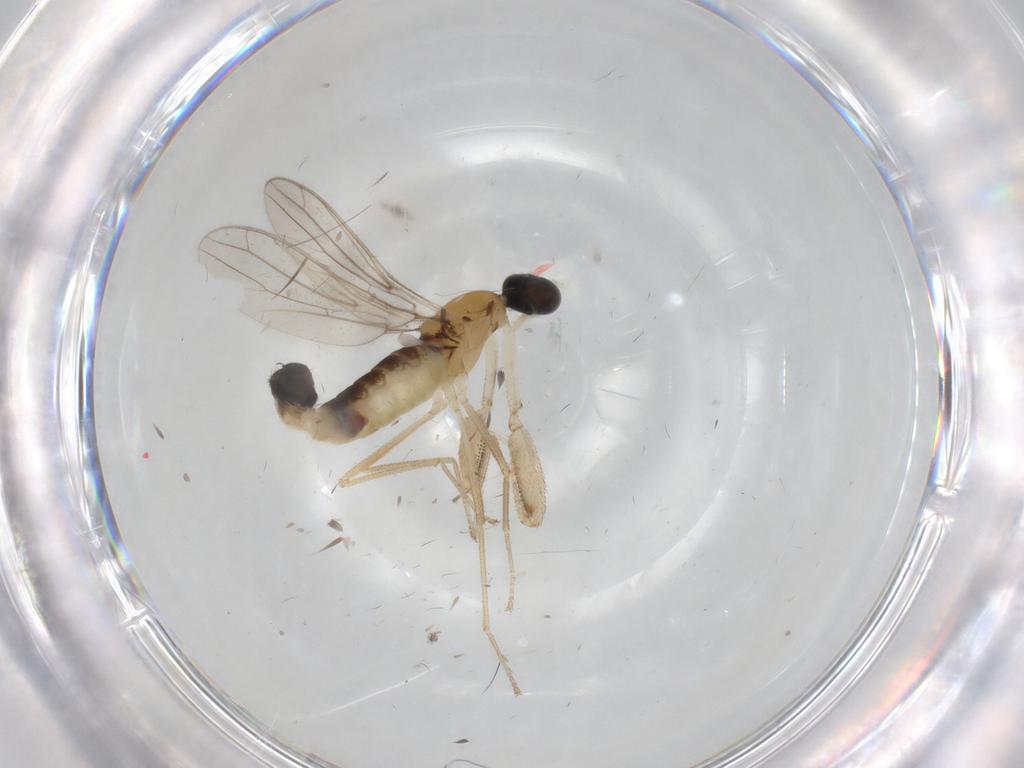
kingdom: Animalia
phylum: Arthropoda
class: Insecta
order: Diptera
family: Empididae
